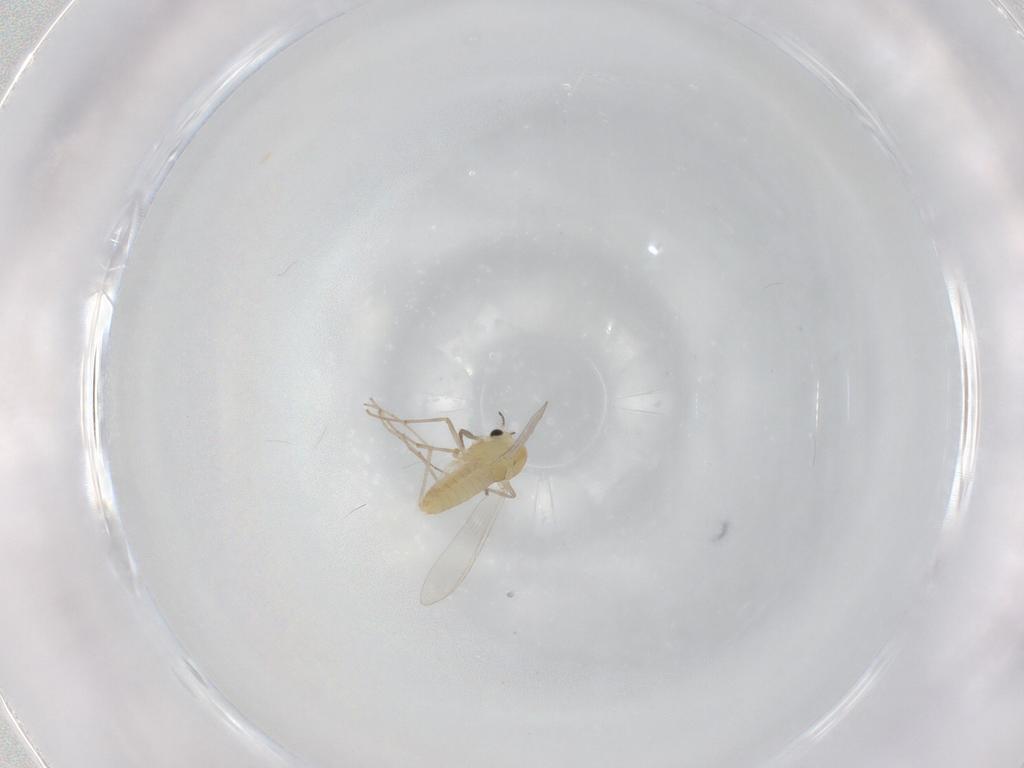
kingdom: Animalia
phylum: Arthropoda
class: Insecta
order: Diptera
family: Chironomidae
